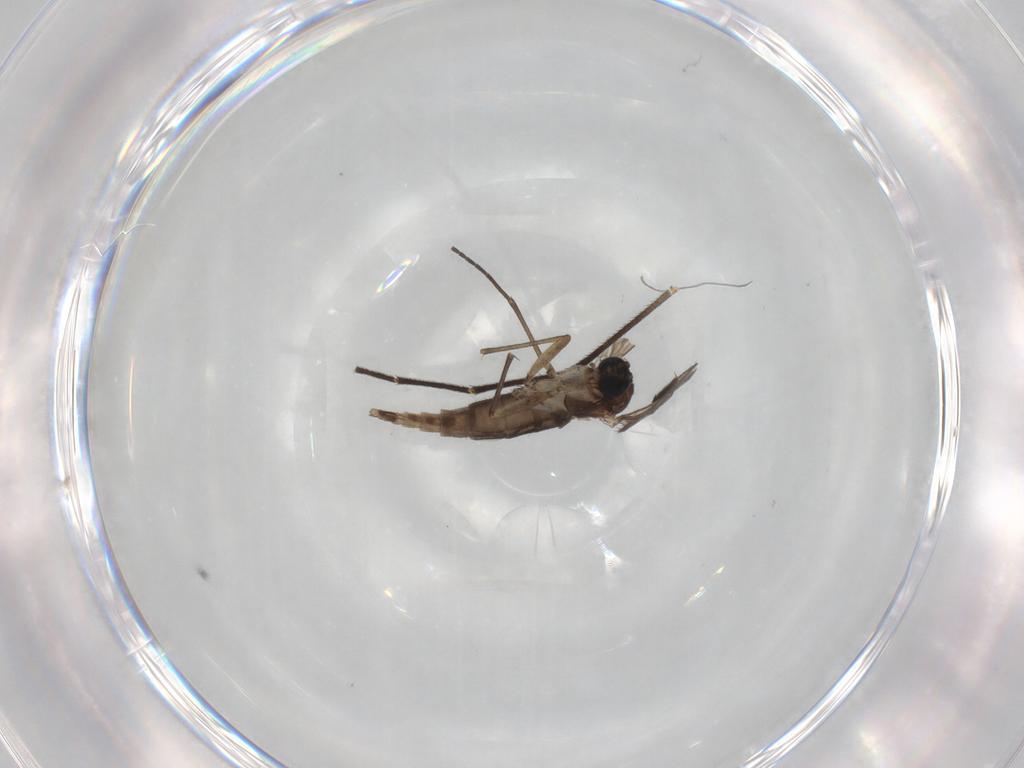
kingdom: Animalia
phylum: Arthropoda
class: Insecta
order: Diptera
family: Sciaridae
